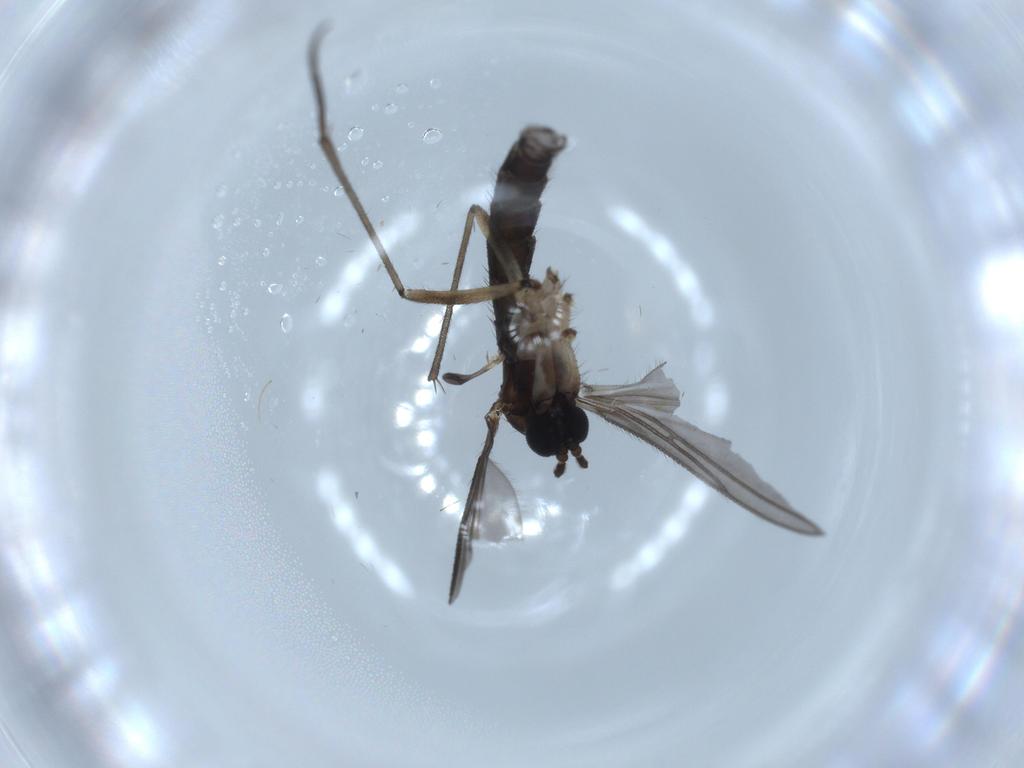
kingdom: Animalia
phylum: Arthropoda
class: Insecta
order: Diptera
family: Sciaridae
